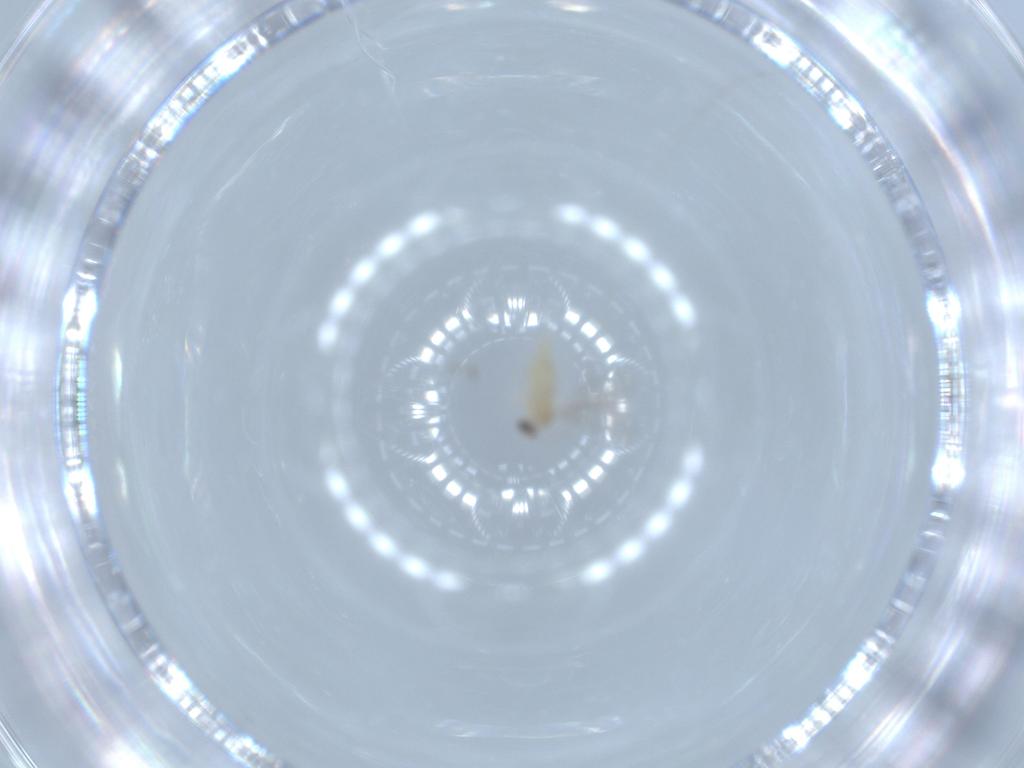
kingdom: Animalia
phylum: Arthropoda
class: Insecta
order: Diptera
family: Cecidomyiidae
